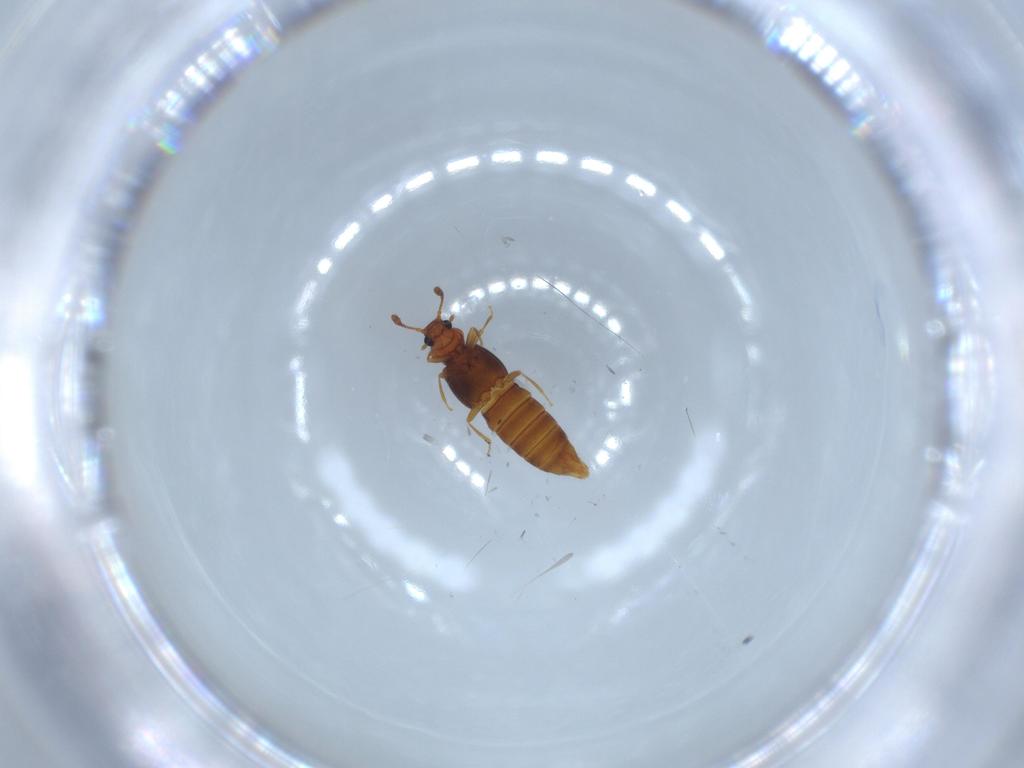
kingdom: Animalia
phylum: Arthropoda
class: Insecta
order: Coleoptera
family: Staphylinidae
